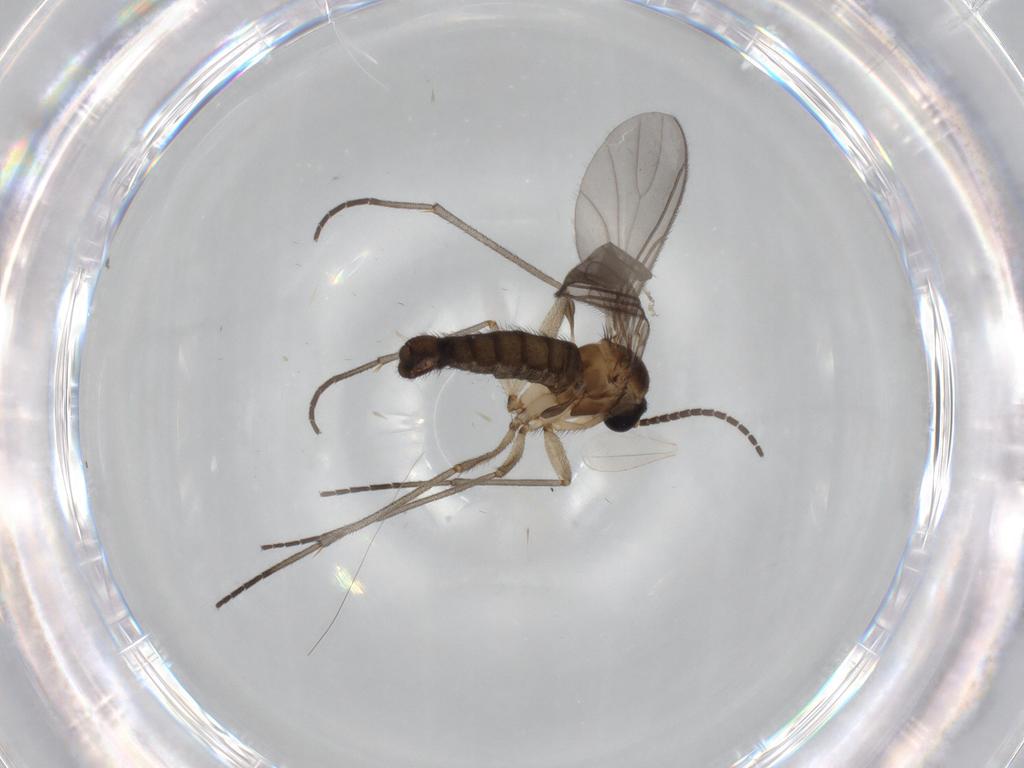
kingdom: Animalia
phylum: Arthropoda
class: Insecta
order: Diptera
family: Sciaridae
